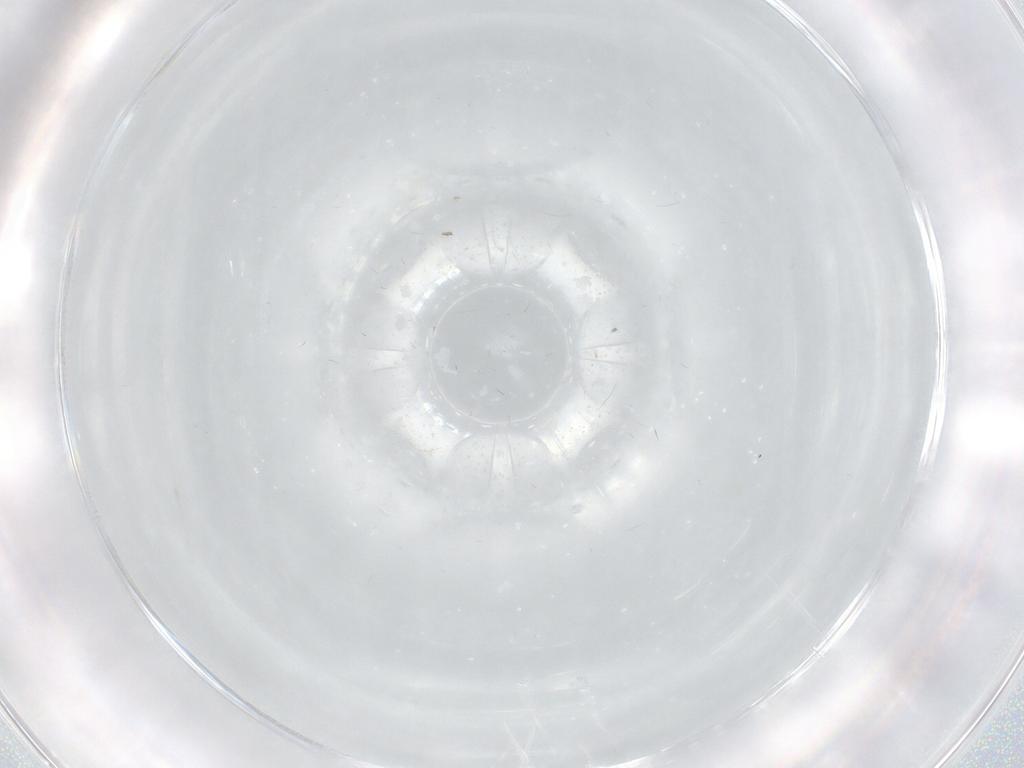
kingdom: Animalia
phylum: Arthropoda
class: Insecta
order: Diptera
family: Chironomidae
